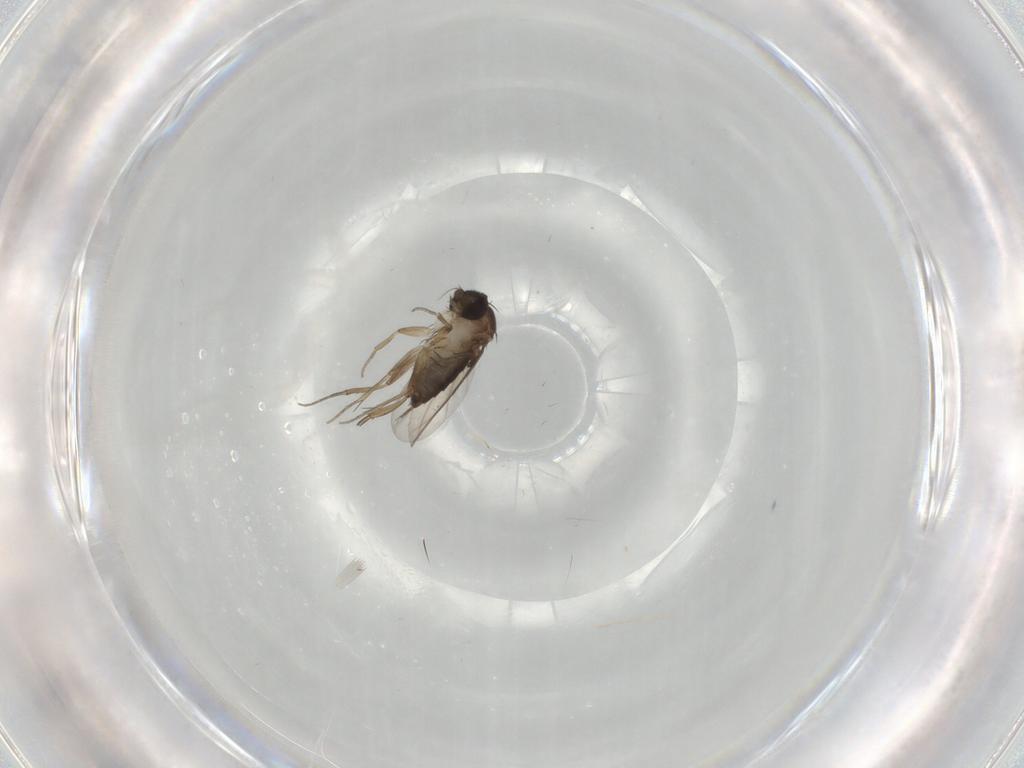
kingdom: Animalia
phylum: Arthropoda
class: Insecta
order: Diptera
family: Phoridae
